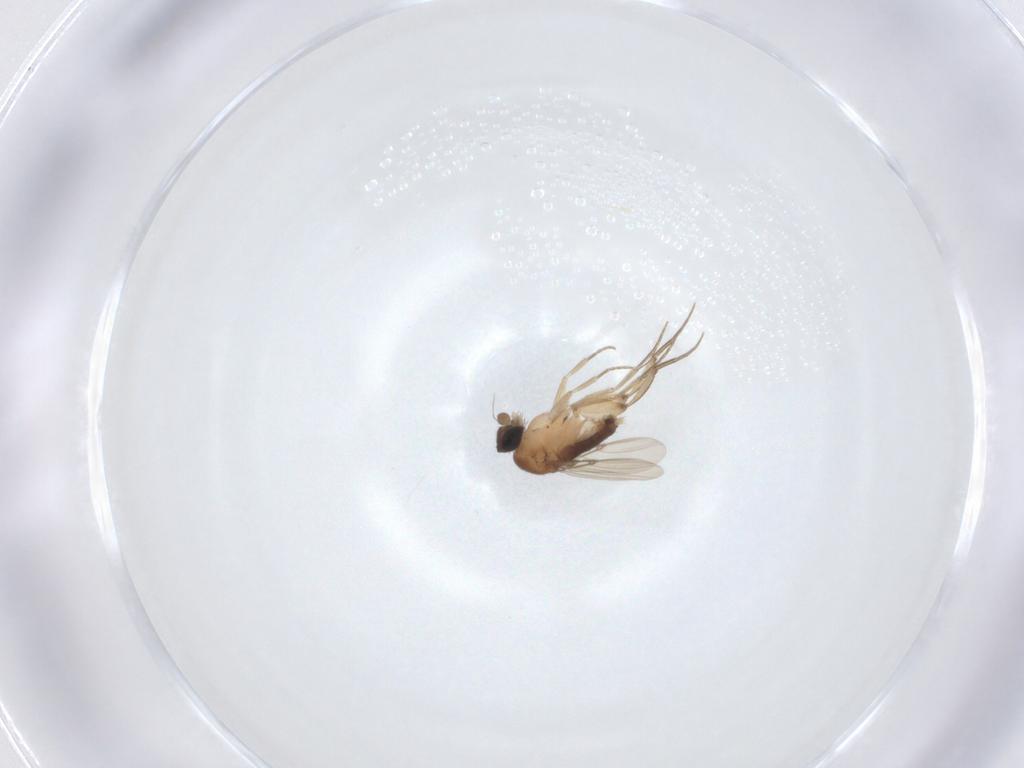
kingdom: Animalia
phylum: Arthropoda
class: Insecta
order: Diptera
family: Phoridae
